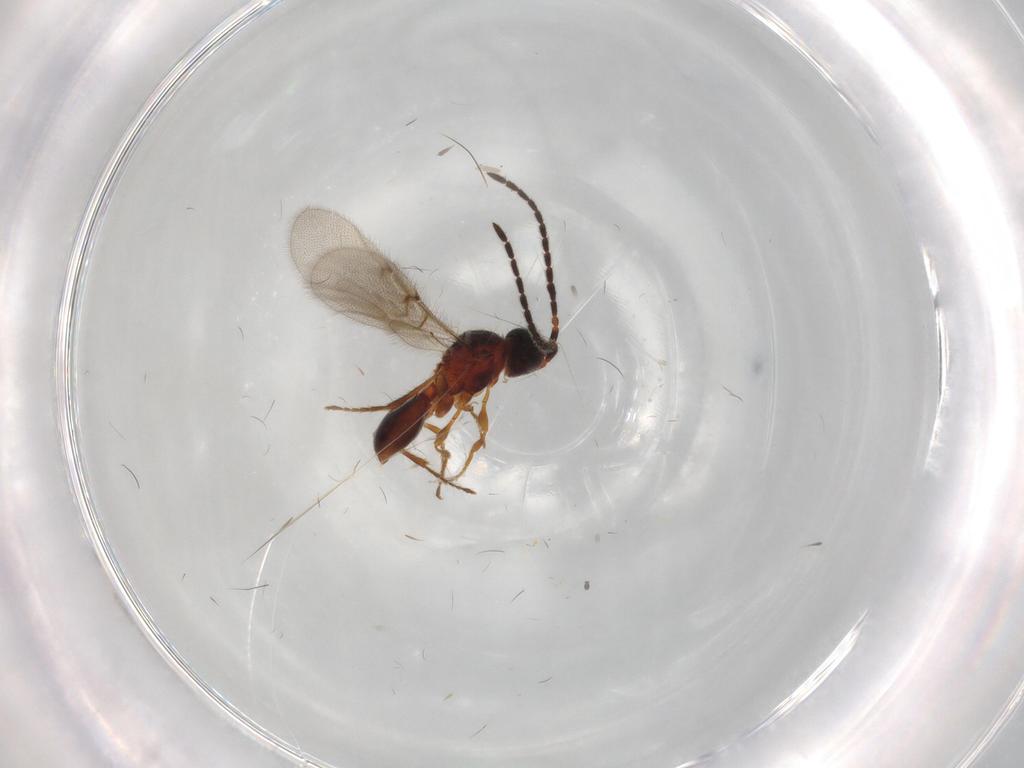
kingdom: Animalia
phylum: Arthropoda
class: Insecta
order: Hymenoptera
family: Diapriidae
